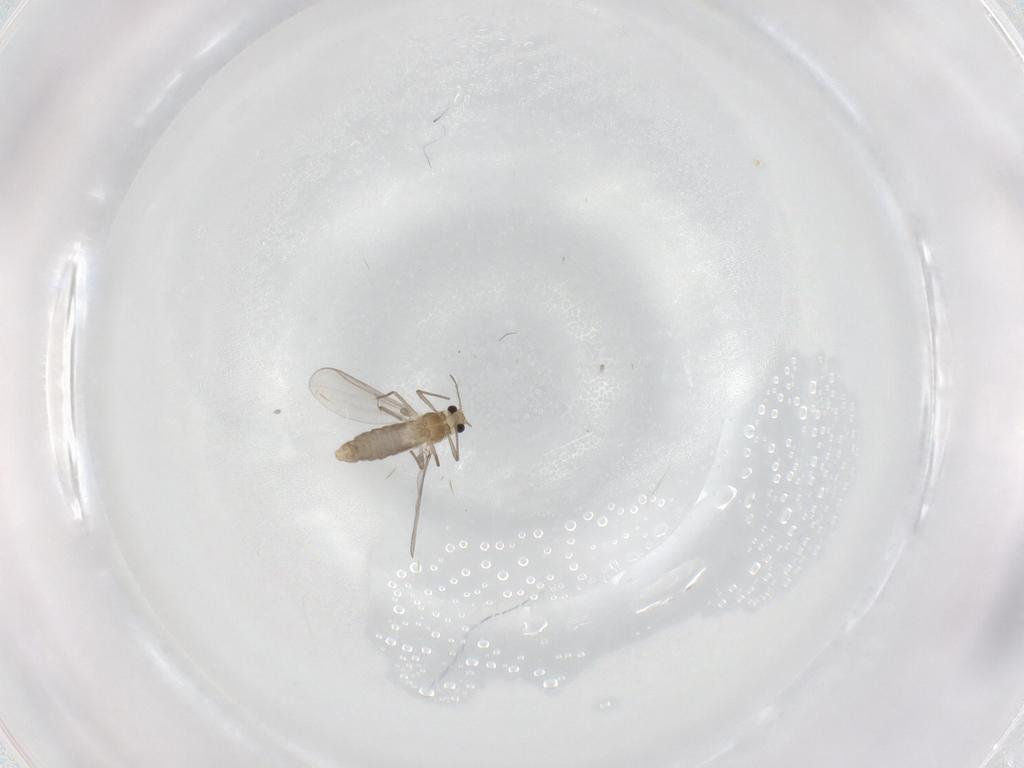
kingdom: Animalia
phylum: Arthropoda
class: Insecta
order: Diptera
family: Chironomidae
